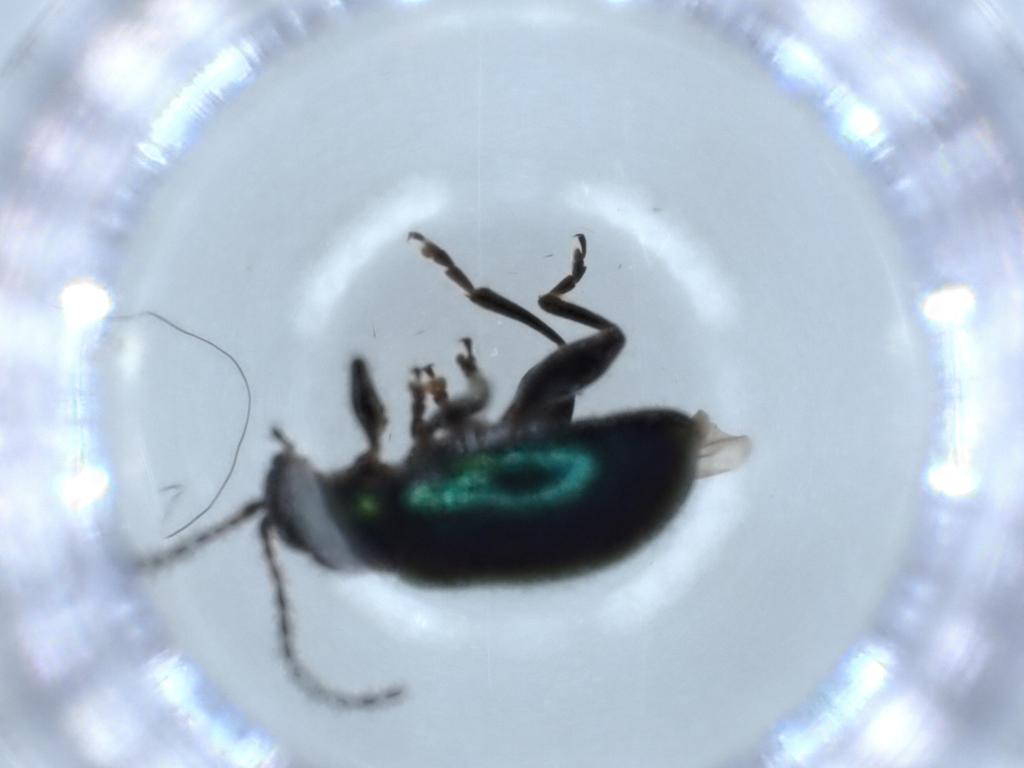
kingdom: Animalia
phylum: Arthropoda
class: Insecta
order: Coleoptera
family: Chrysomelidae
